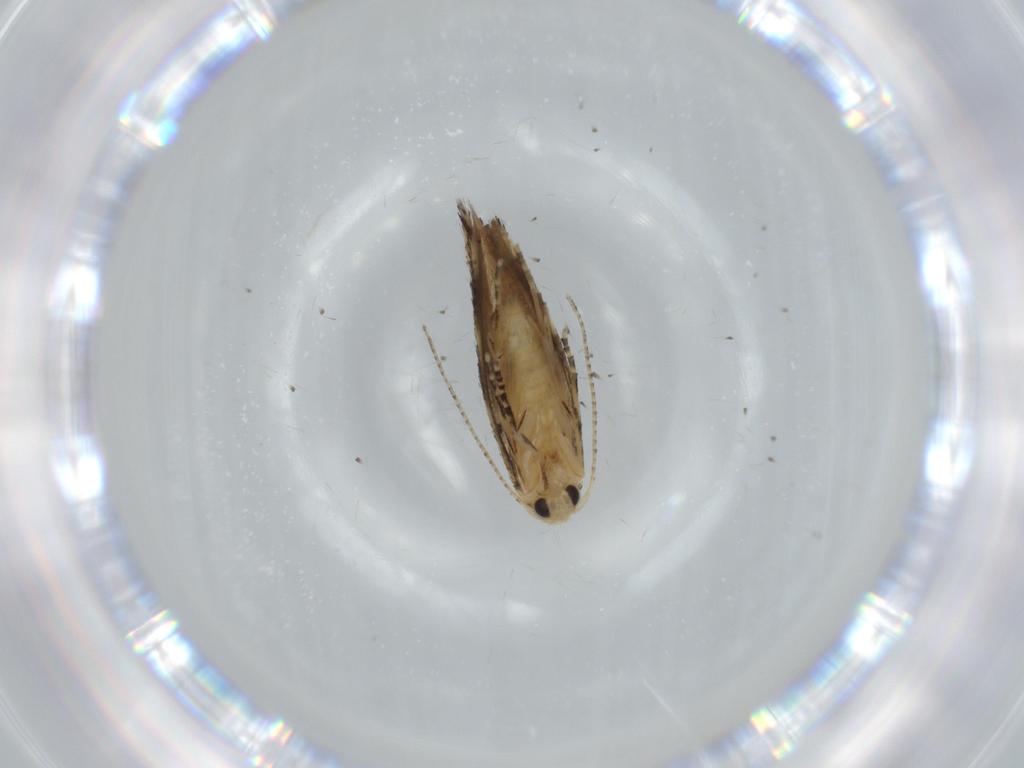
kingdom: Animalia
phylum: Arthropoda
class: Insecta
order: Lepidoptera
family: Bucculatricidae
